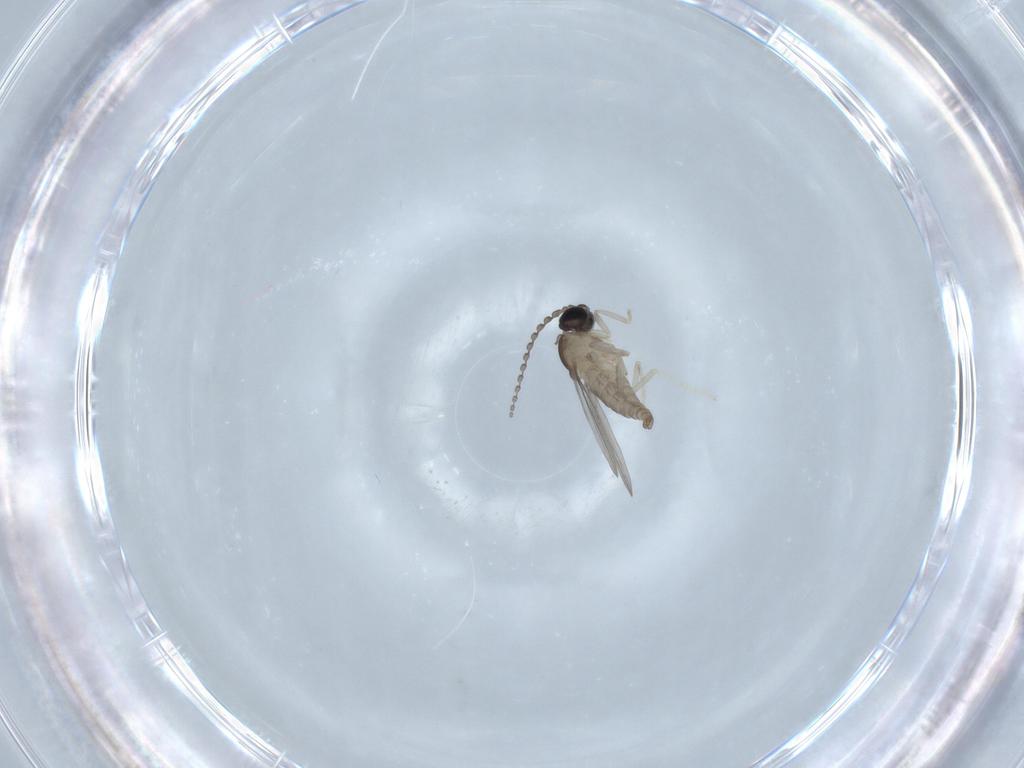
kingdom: Animalia
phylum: Arthropoda
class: Insecta
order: Diptera
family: Cecidomyiidae
